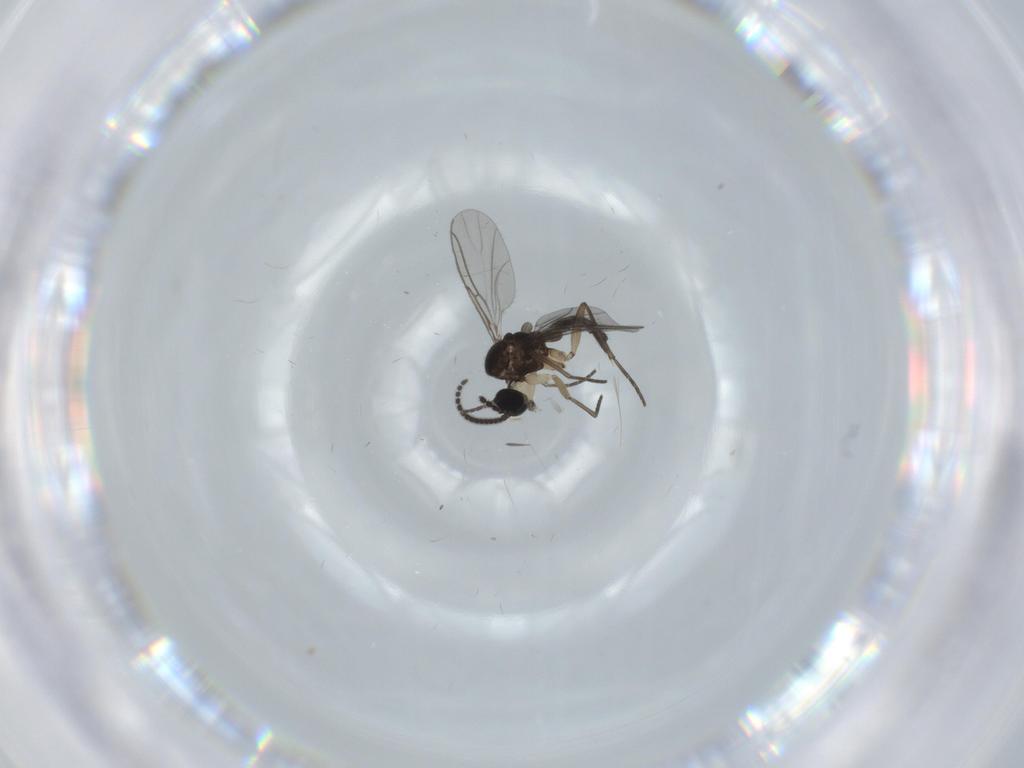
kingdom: Animalia
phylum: Arthropoda
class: Insecta
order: Diptera
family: Sciaridae
